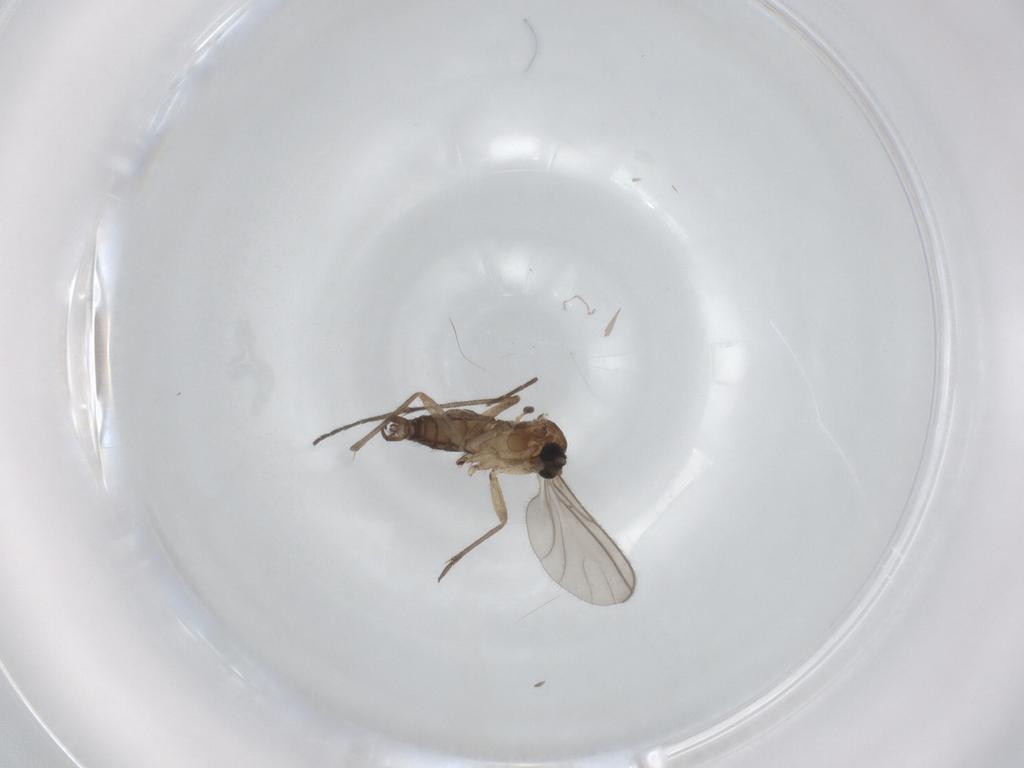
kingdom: Animalia
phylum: Arthropoda
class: Insecta
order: Diptera
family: Sciaridae
